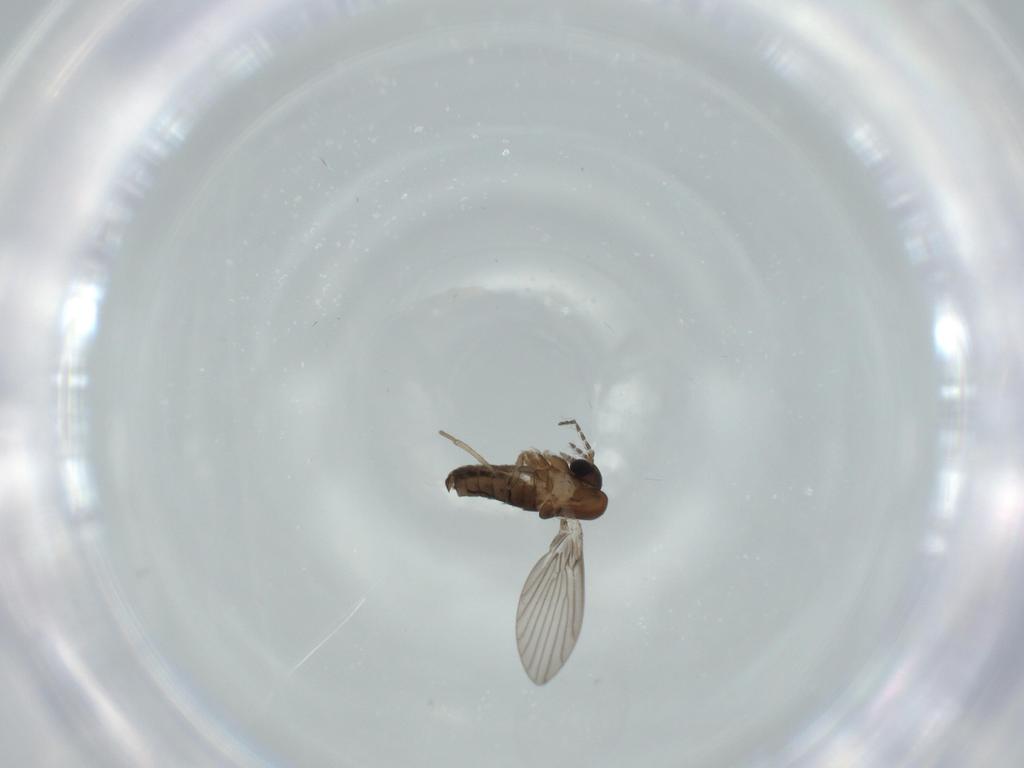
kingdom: Animalia
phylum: Arthropoda
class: Insecta
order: Diptera
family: Psychodidae
